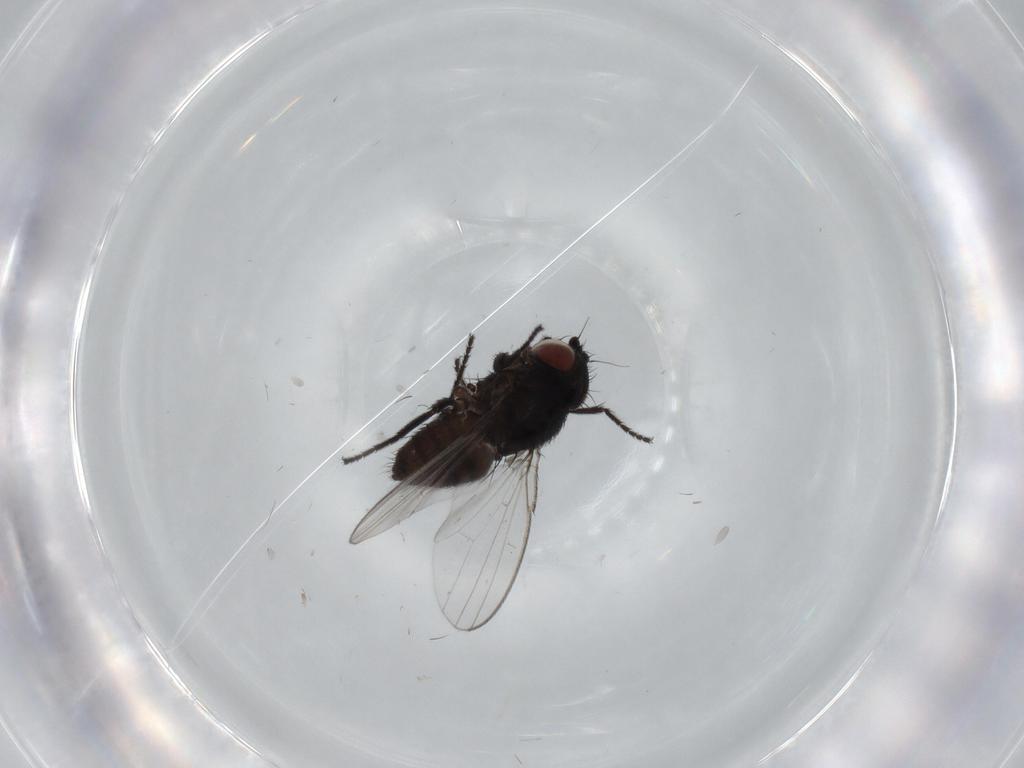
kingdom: Animalia
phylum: Arthropoda
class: Insecta
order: Diptera
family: Milichiidae
